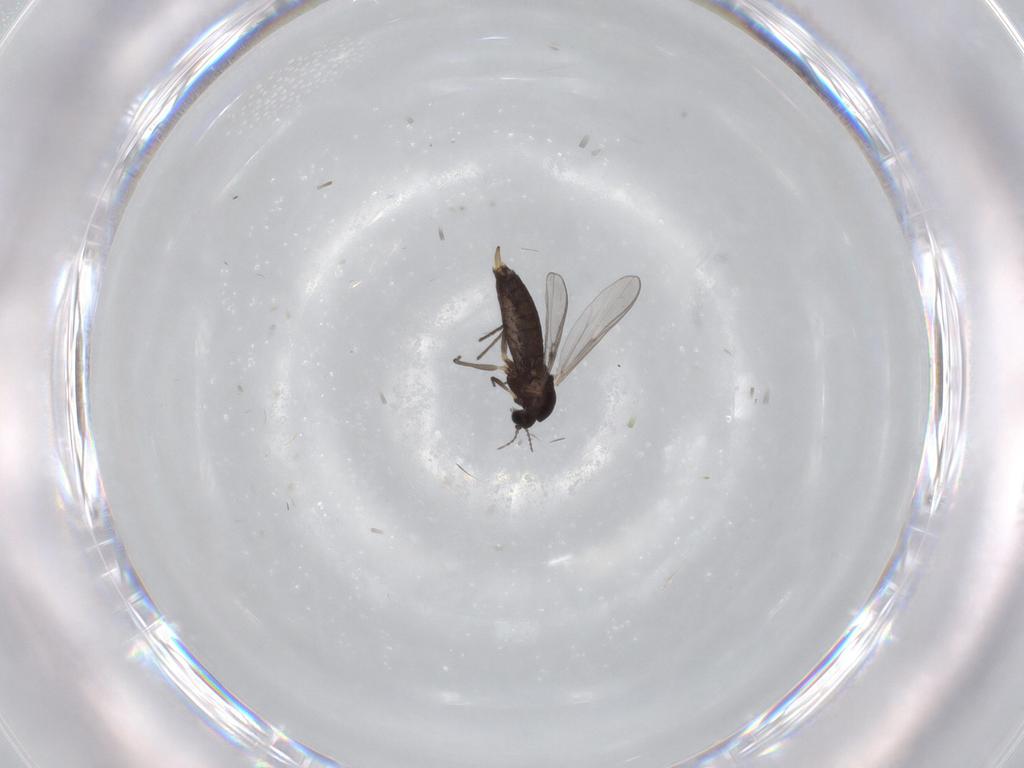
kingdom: Animalia
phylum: Arthropoda
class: Insecta
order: Diptera
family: Chironomidae
